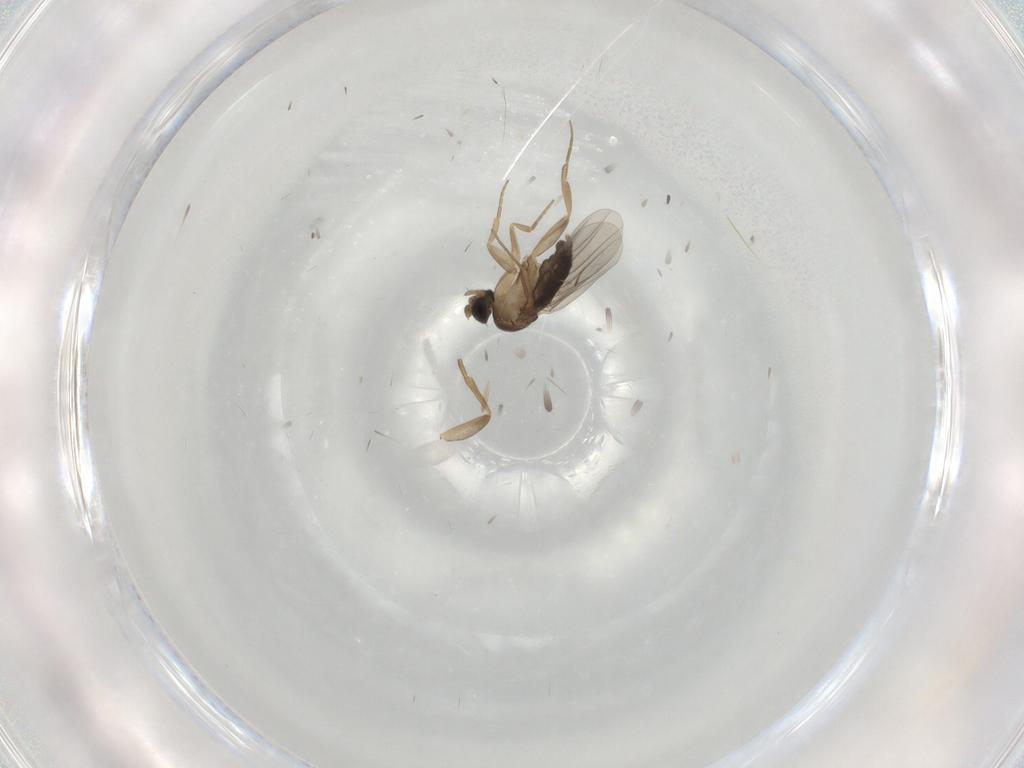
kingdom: Animalia
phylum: Arthropoda
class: Insecta
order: Diptera
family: Phoridae
